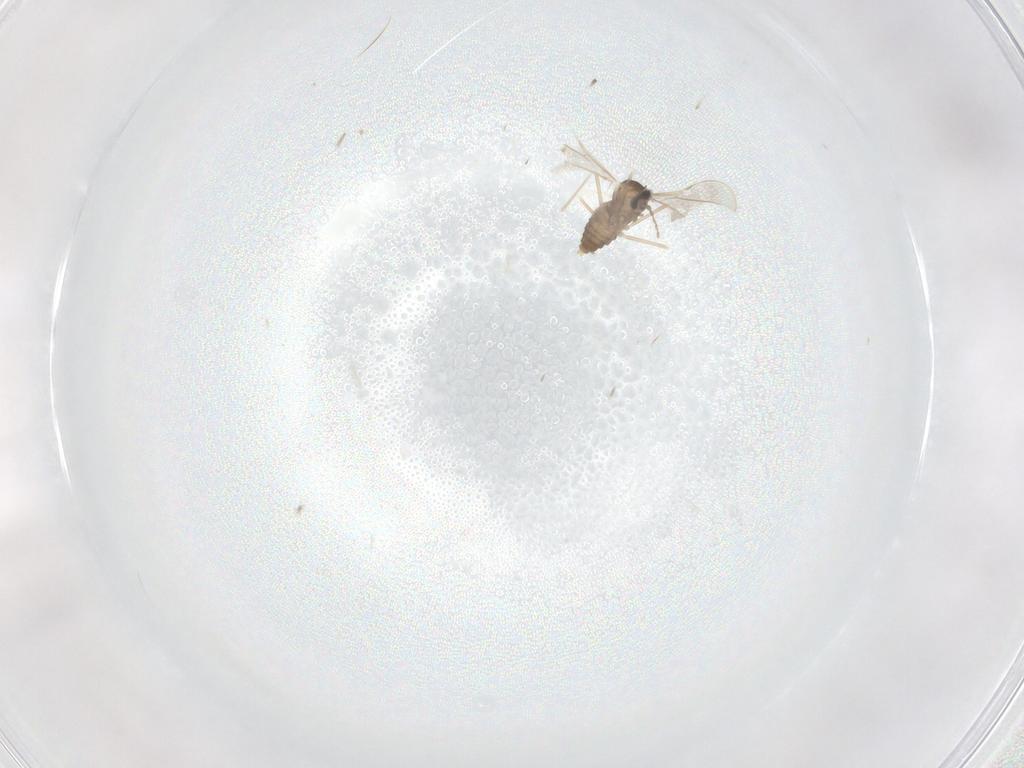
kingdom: Animalia
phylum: Arthropoda
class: Insecta
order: Diptera
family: Cecidomyiidae
